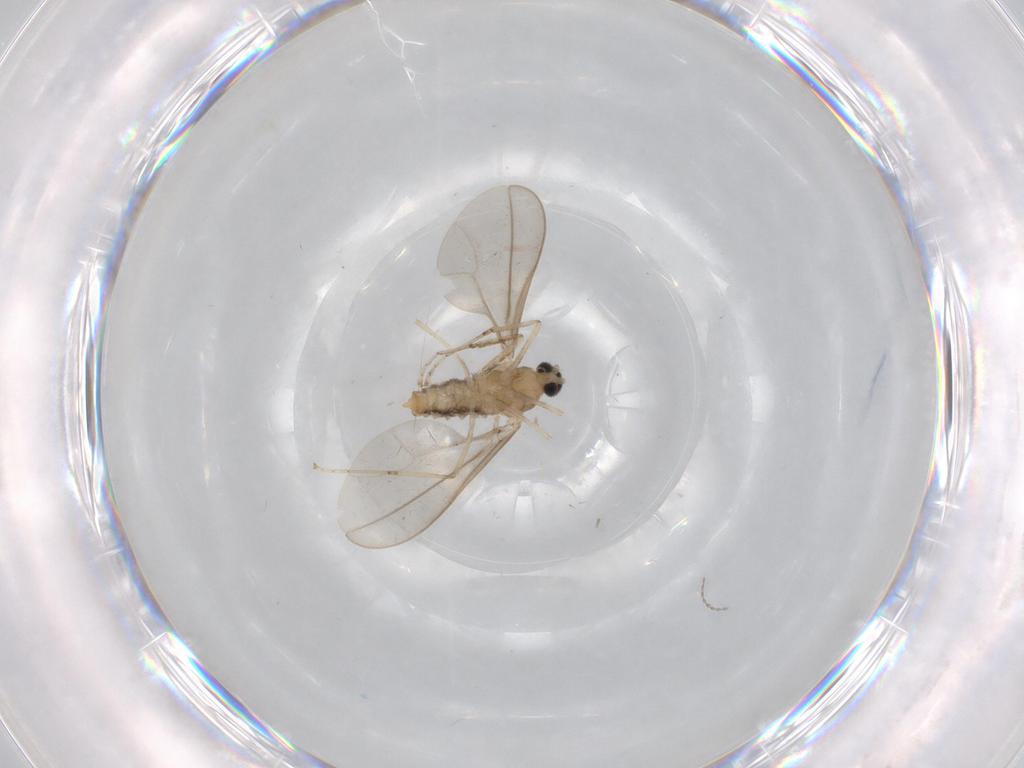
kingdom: Animalia
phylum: Arthropoda
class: Insecta
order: Diptera
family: Cecidomyiidae
